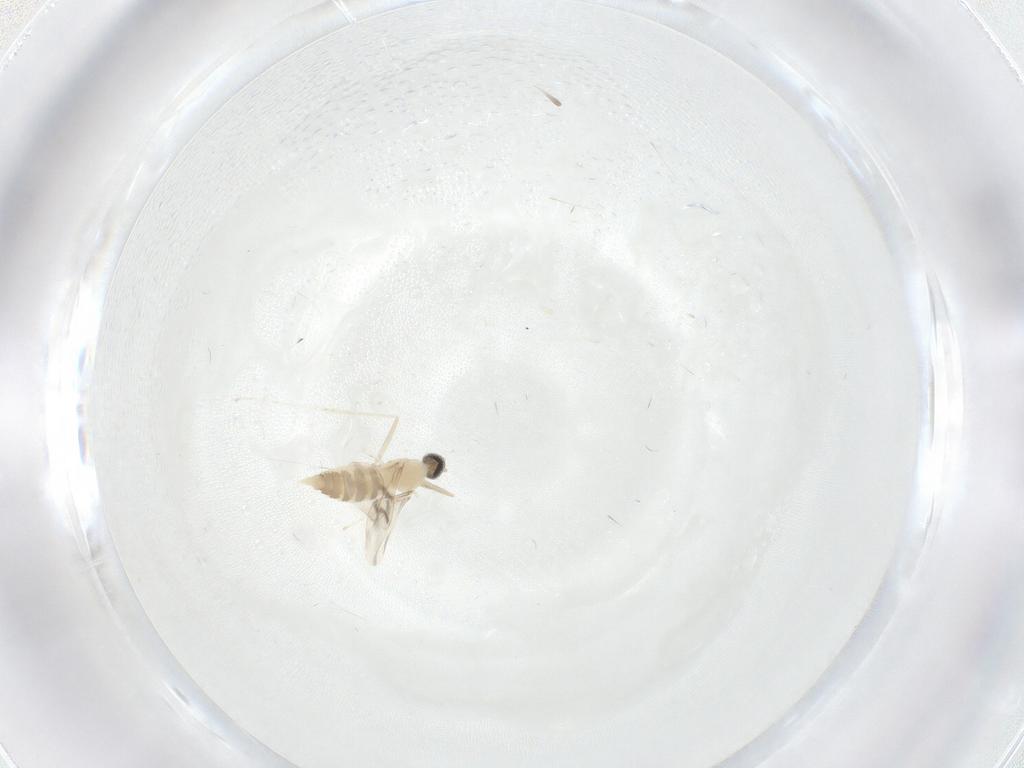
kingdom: Animalia
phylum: Arthropoda
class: Insecta
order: Diptera
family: Cecidomyiidae
